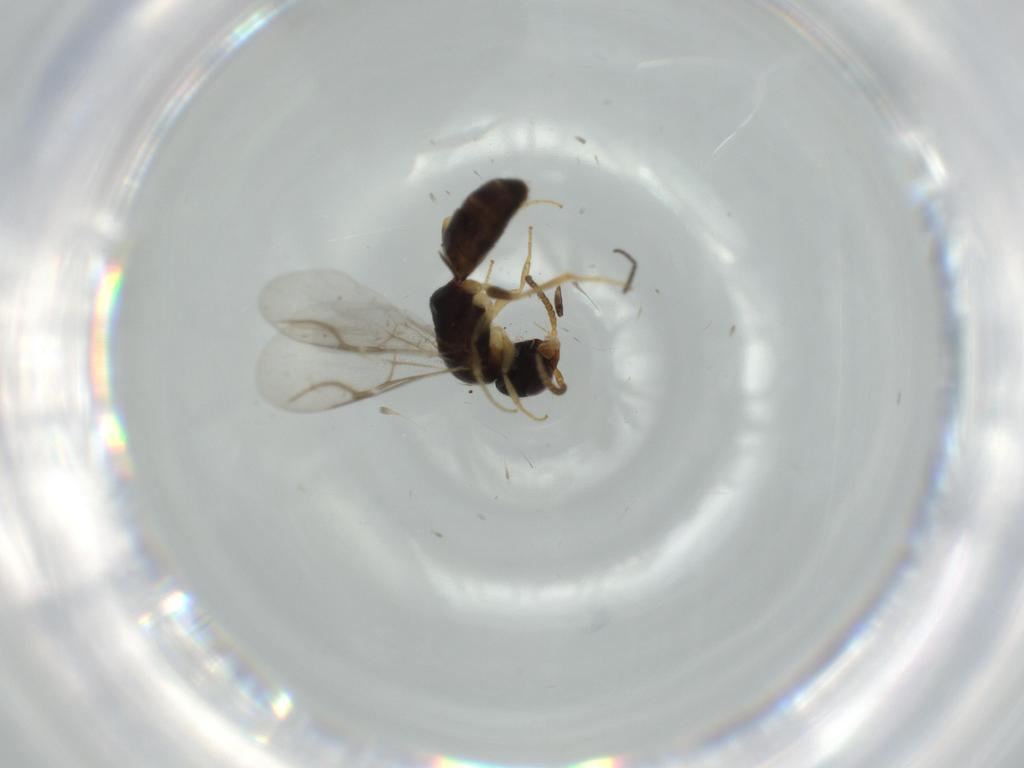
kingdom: Animalia
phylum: Arthropoda
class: Insecta
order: Hymenoptera
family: Bethylidae
